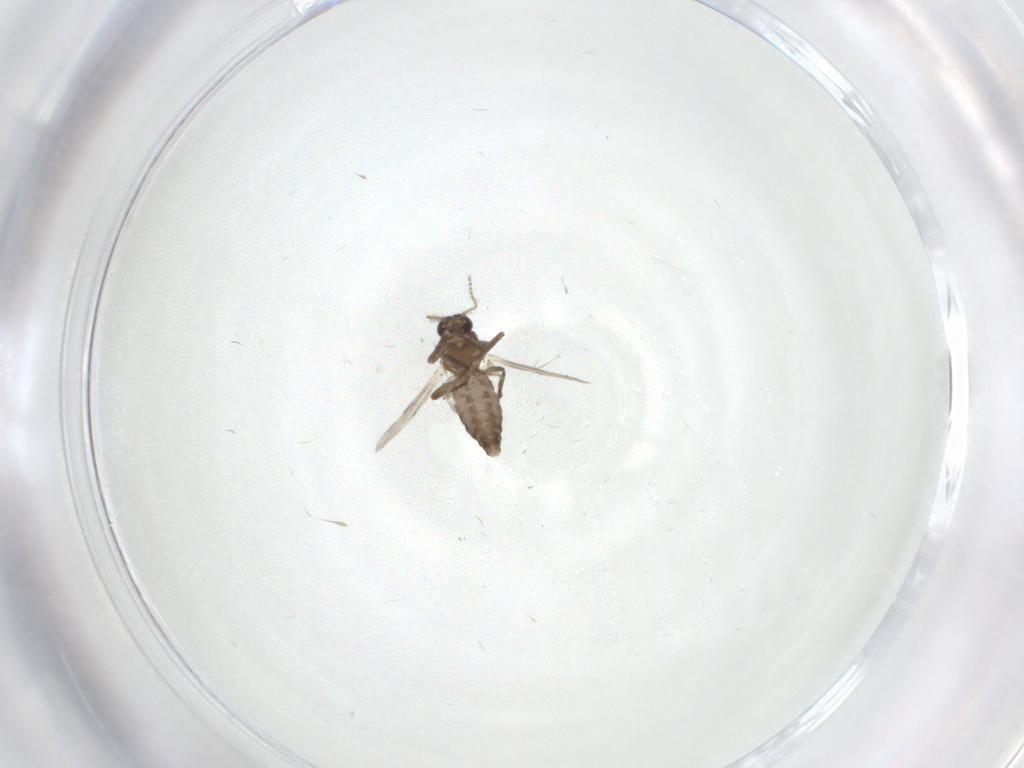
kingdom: Animalia
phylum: Arthropoda
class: Insecta
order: Diptera
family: Ceratopogonidae
